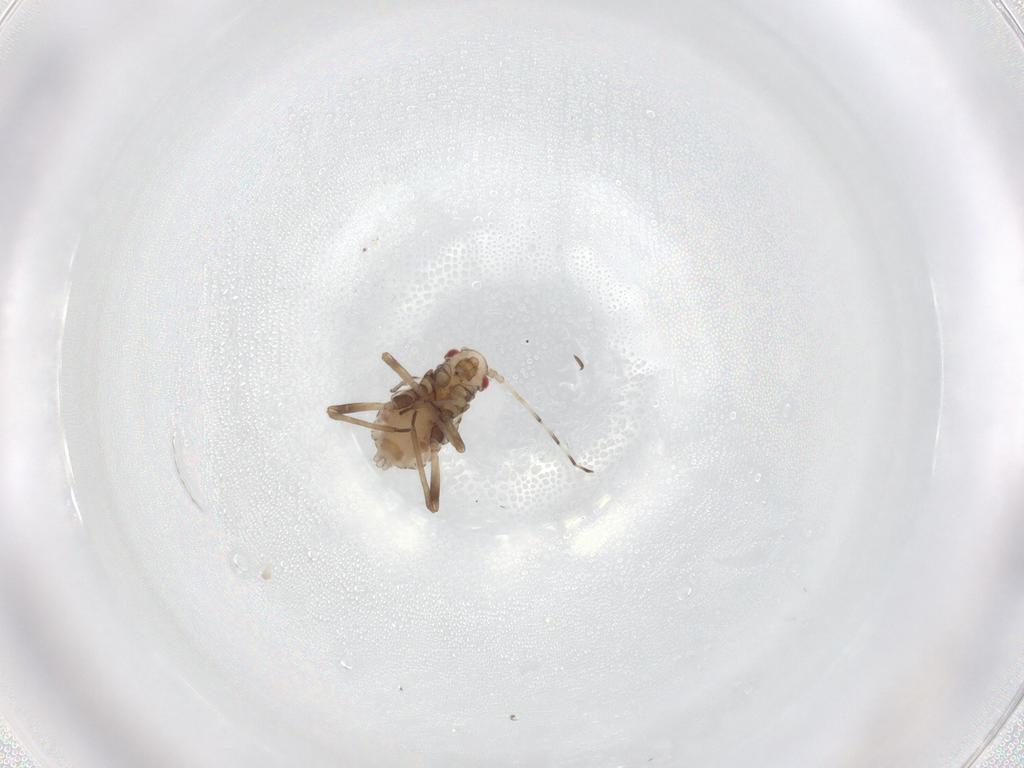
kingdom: Animalia
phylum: Arthropoda
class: Insecta
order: Hemiptera
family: Aphididae
